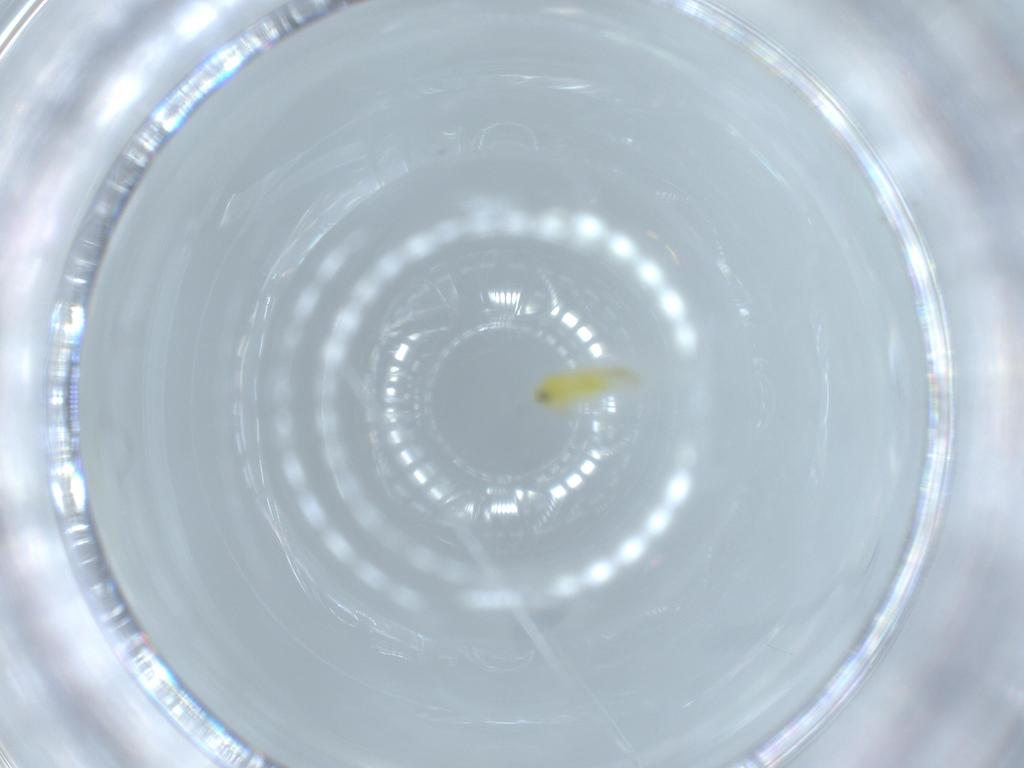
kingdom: Animalia
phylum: Arthropoda
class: Insecta
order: Hemiptera
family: Aleyrodidae
